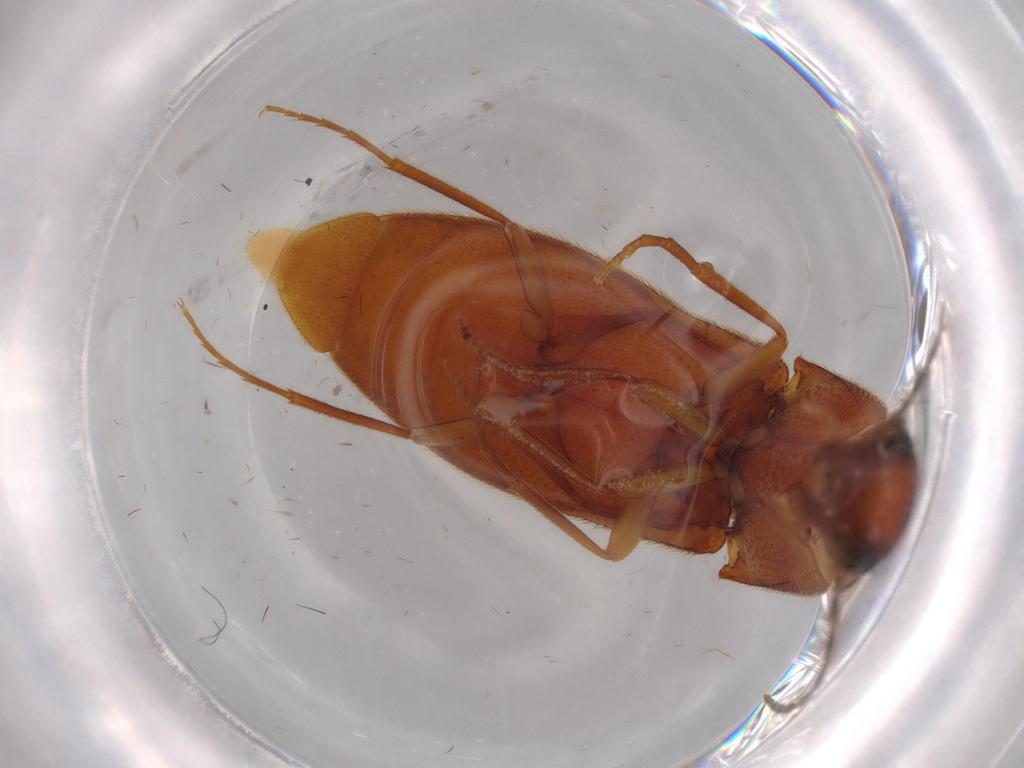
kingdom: Animalia
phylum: Arthropoda
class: Insecta
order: Coleoptera
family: Elateridae
